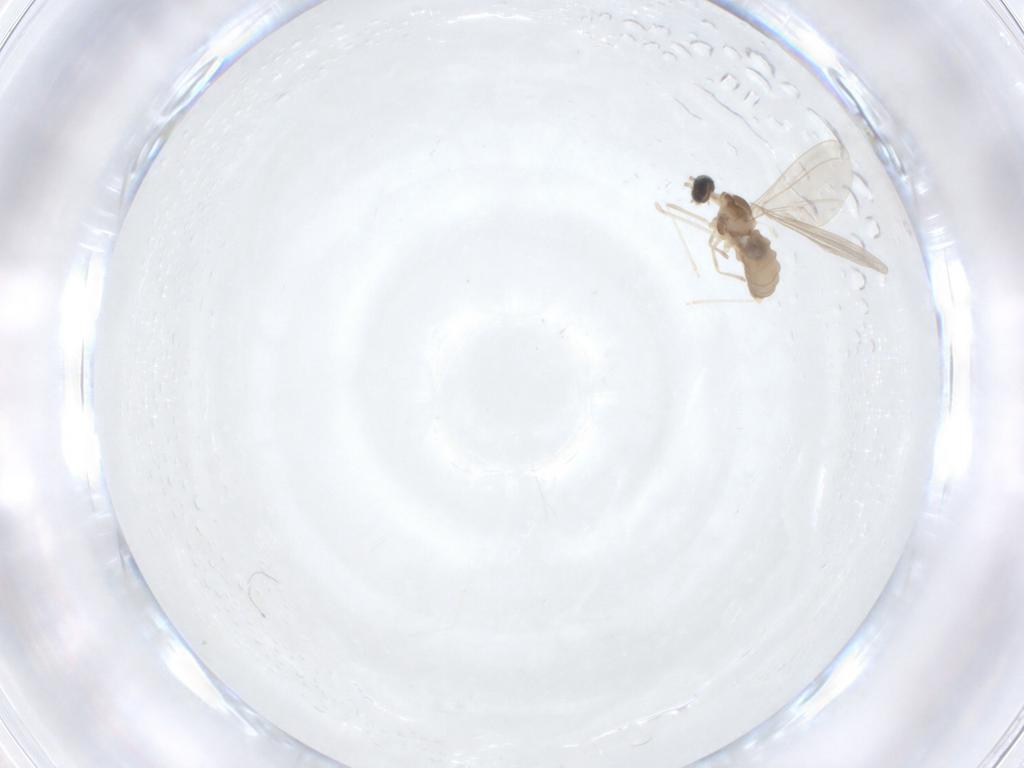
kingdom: Animalia
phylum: Arthropoda
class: Insecta
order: Diptera
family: Cecidomyiidae
